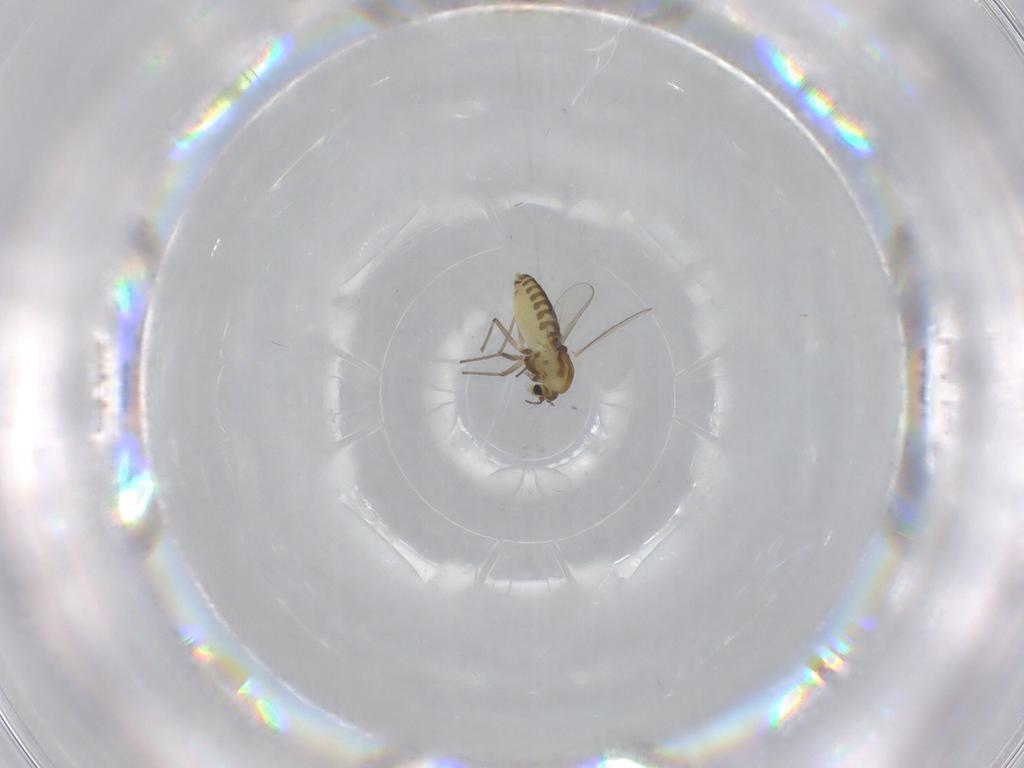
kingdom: Animalia
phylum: Arthropoda
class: Insecta
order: Diptera
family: Chironomidae
